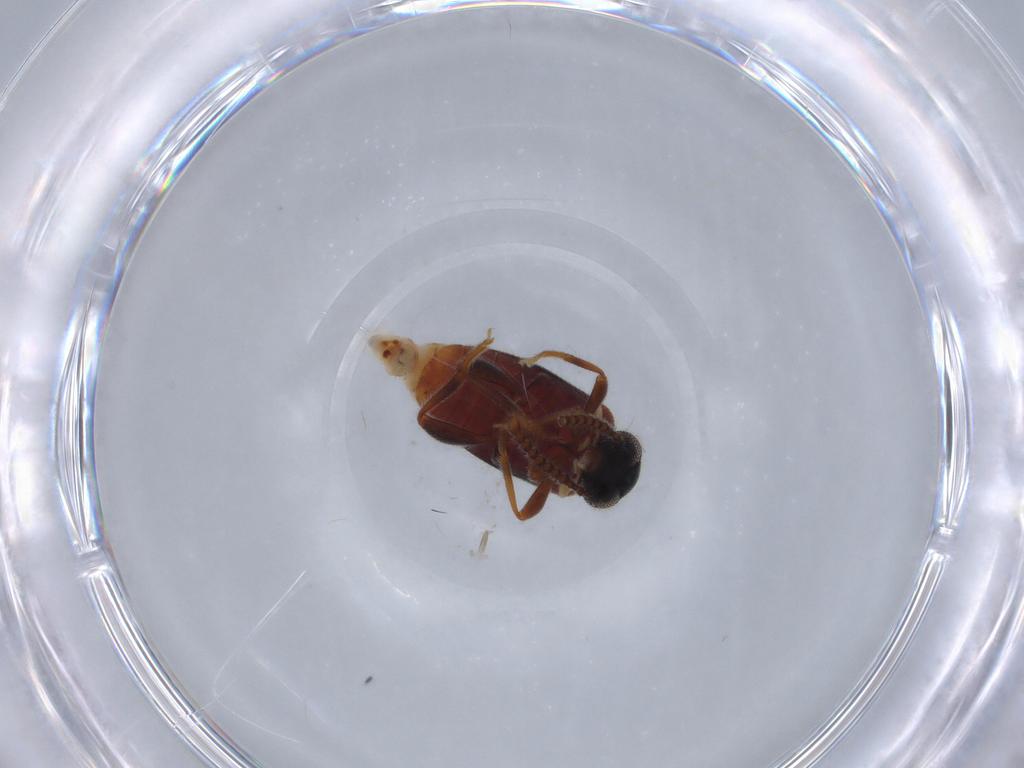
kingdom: Animalia
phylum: Arthropoda
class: Insecta
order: Coleoptera
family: Aderidae
